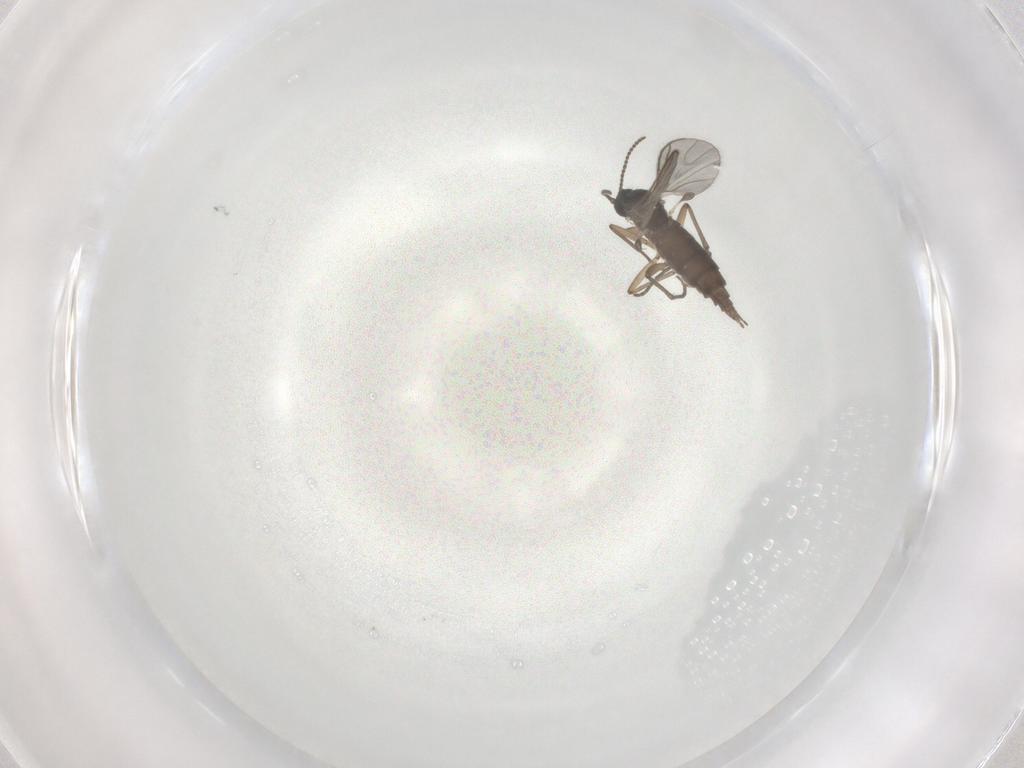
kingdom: Animalia
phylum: Arthropoda
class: Insecta
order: Diptera
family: Sciaridae
